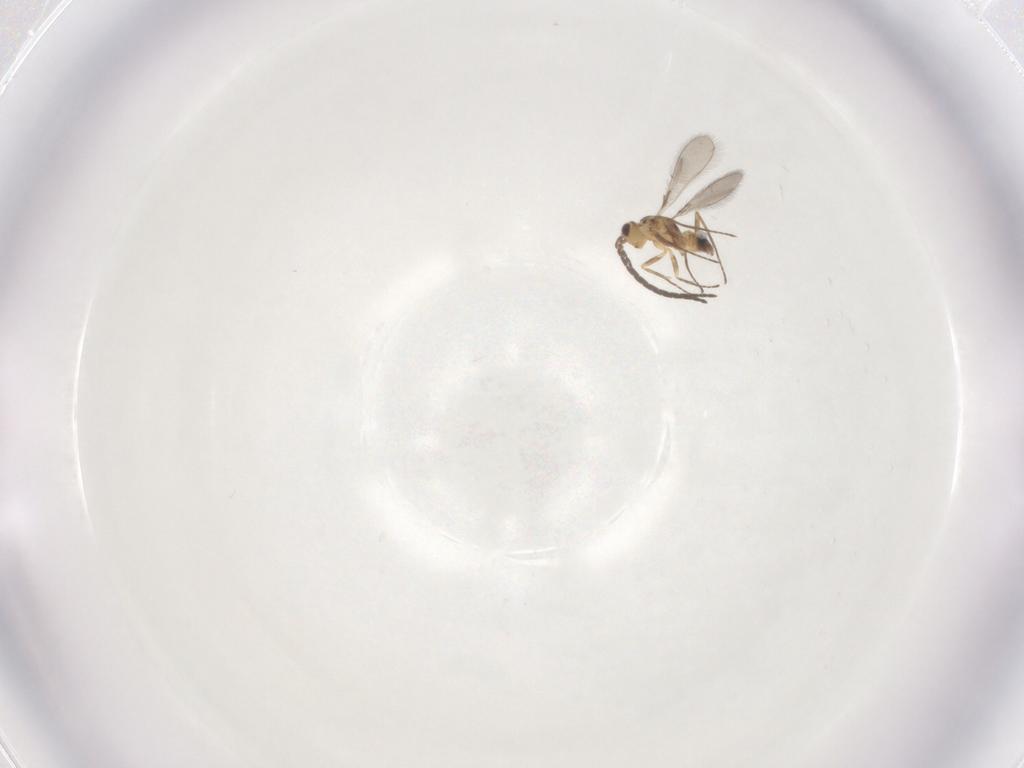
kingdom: Animalia
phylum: Arthropoda
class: Insecta
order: Hymenoptera
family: Mymaridae
